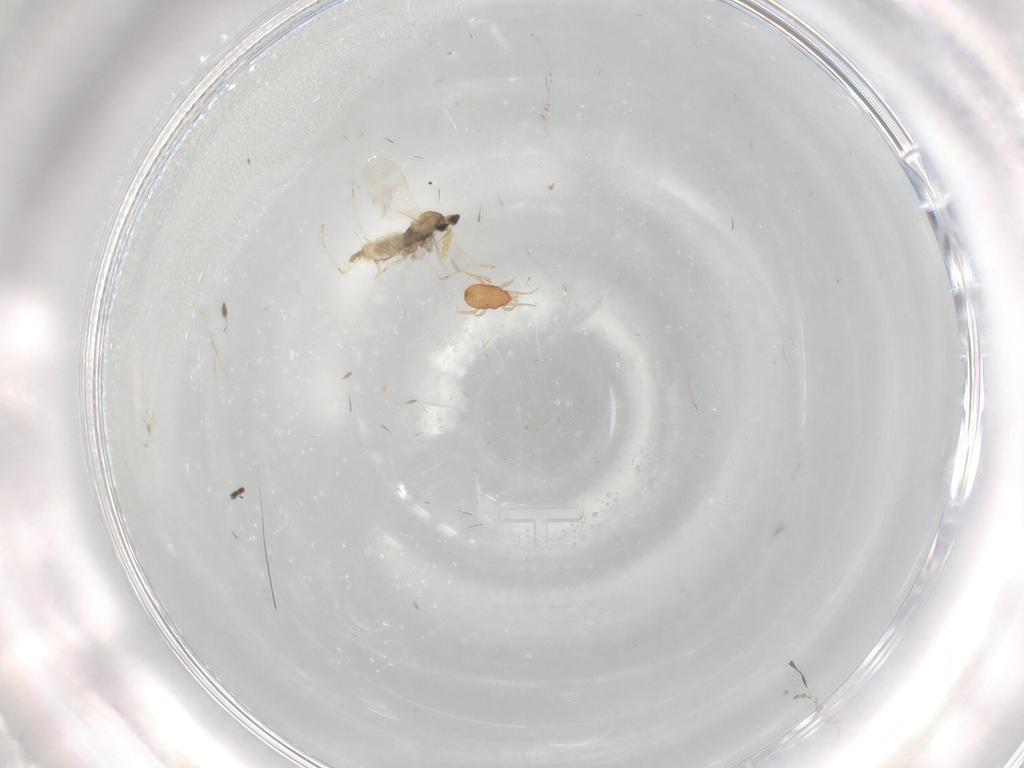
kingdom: Animalia
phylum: Arthropoda
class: Insecta
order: Diptera
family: Cecidomyiidae
